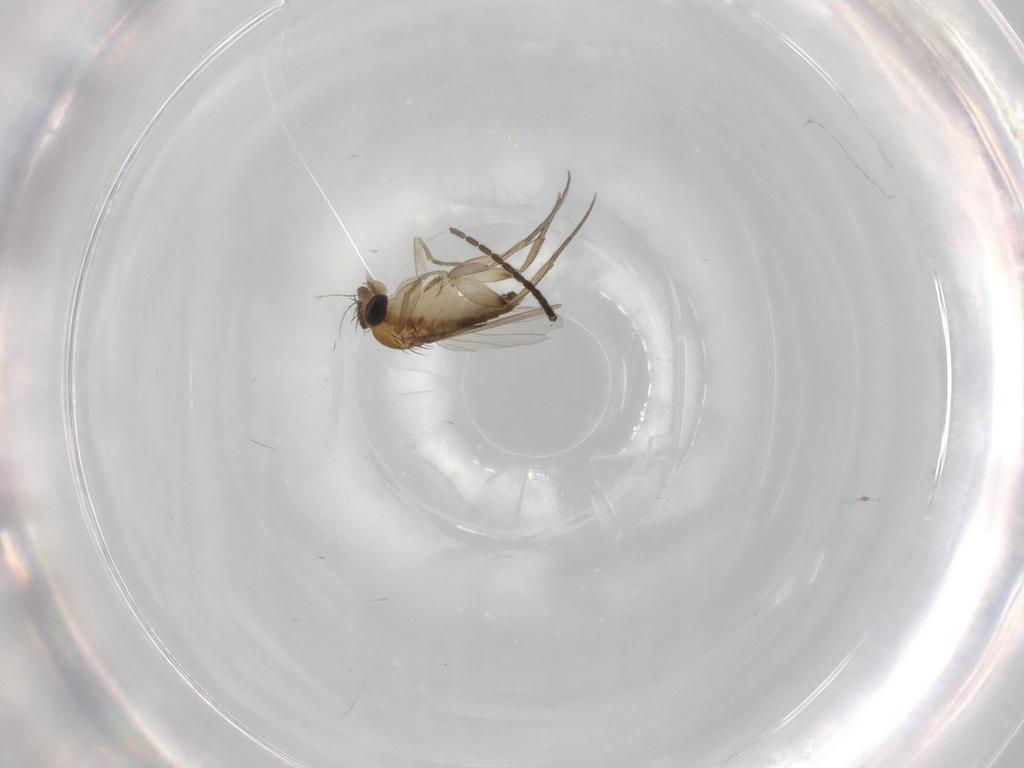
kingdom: Animalia
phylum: Arthropoda
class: Insecta
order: Diptera
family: Phoridae
